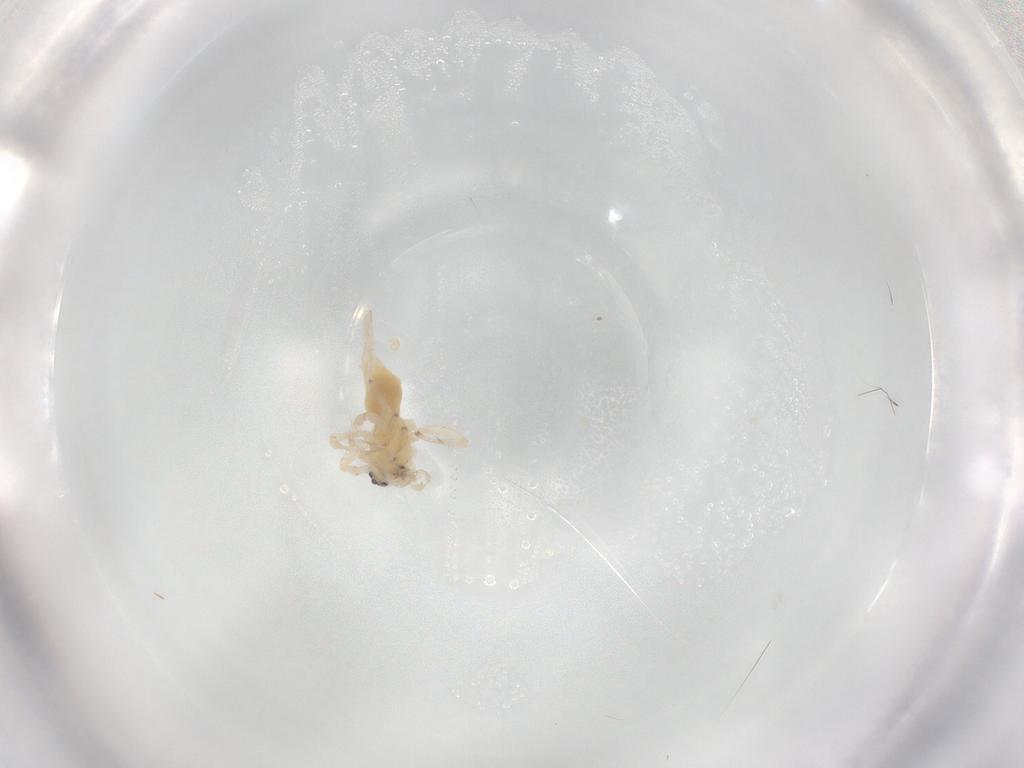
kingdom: Animalia
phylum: Arthropoda
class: Arachnida
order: Araneae
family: Anyphaenidae
